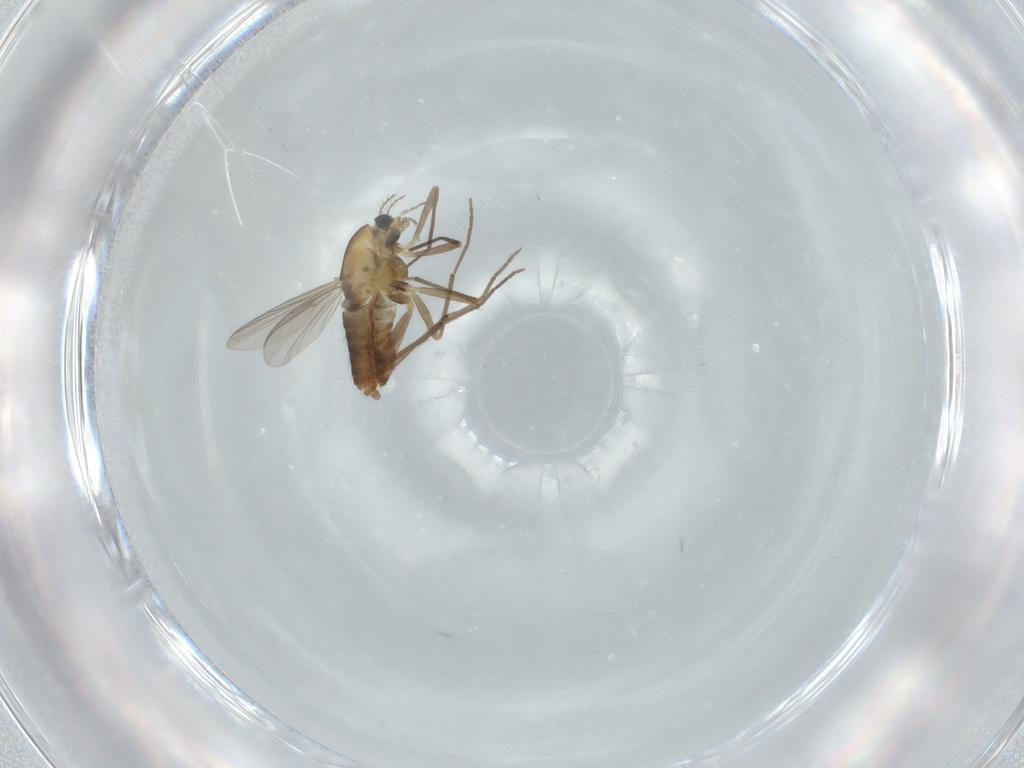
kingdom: Animalia
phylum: Arthropoda
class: Insecta
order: Diptera
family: Chironomidae
